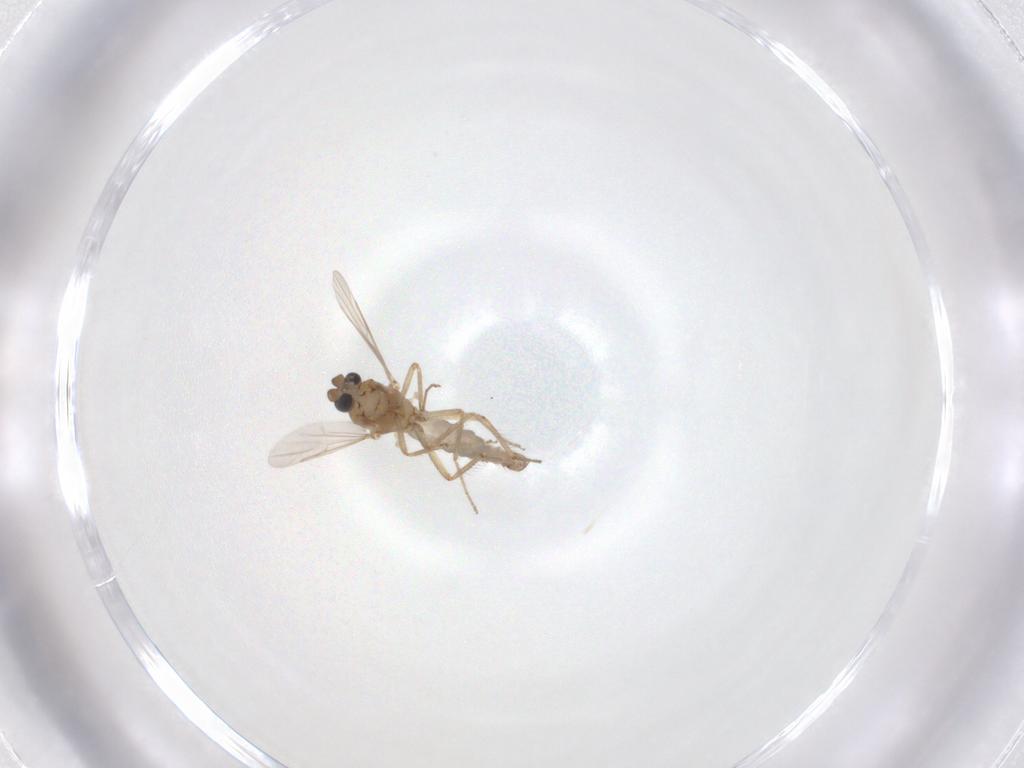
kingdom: Animalia
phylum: Arthropoda
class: Insecta
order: Diptera
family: Ceratopogonidae
